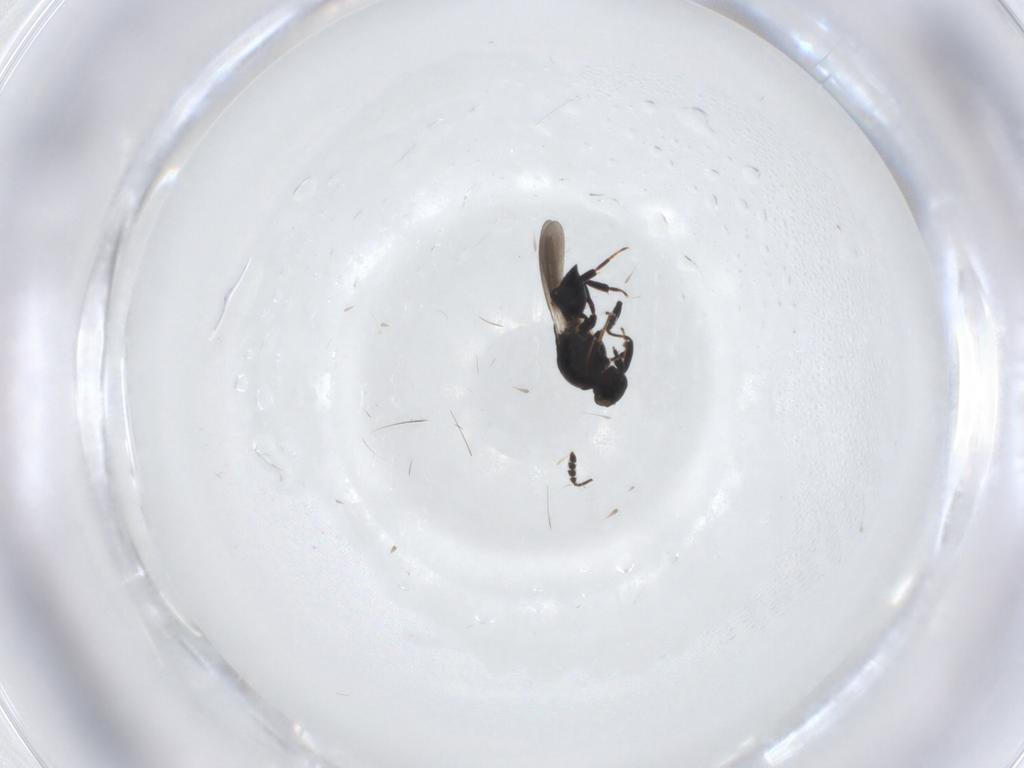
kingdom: Animalia
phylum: Arthropoda
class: Insecta
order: Hymenoptera
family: Platygastridae
